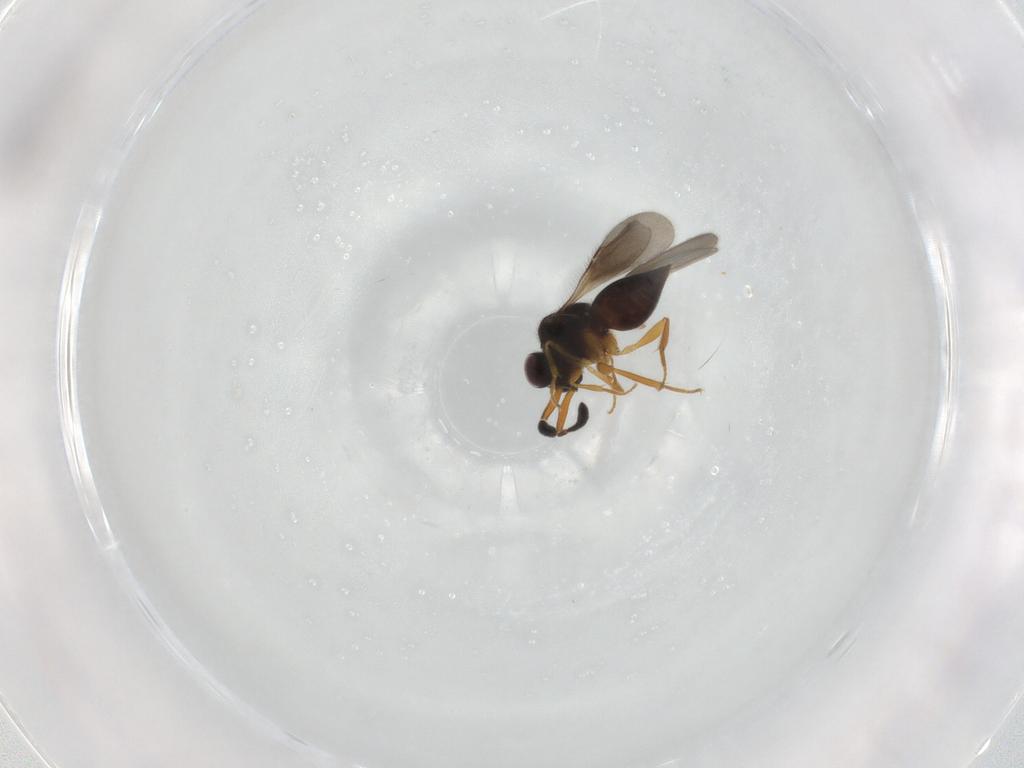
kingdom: Animalia
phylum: Arthropoda
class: Insecta
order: Hymenoptera
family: Ceraphronidae
